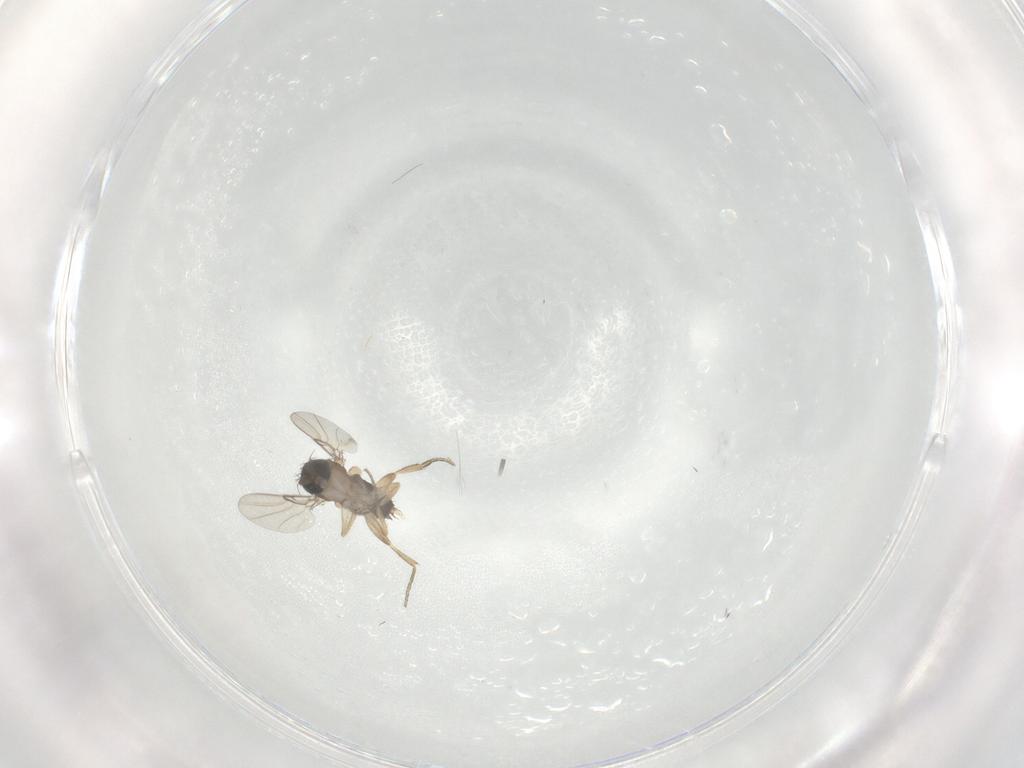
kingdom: Animalia
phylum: Arthropoda
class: Insecta
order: Diptera
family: Phoridae
